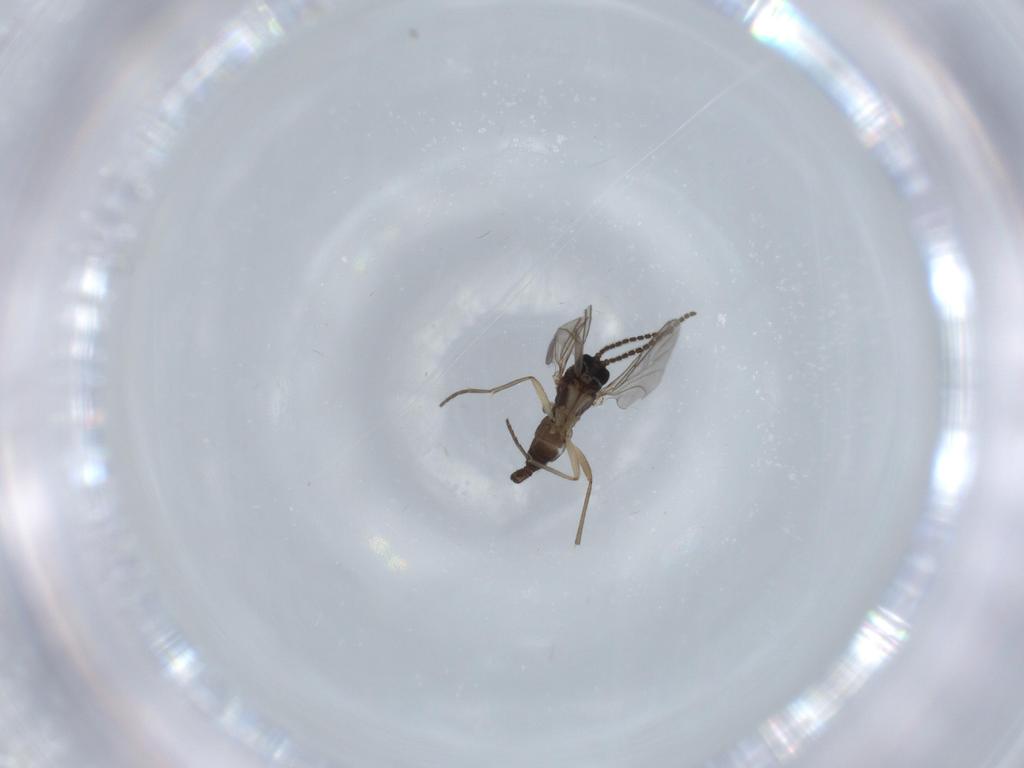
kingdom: Animalia
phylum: Arthropoda
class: Insecta
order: Diptera
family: Sciaridae
